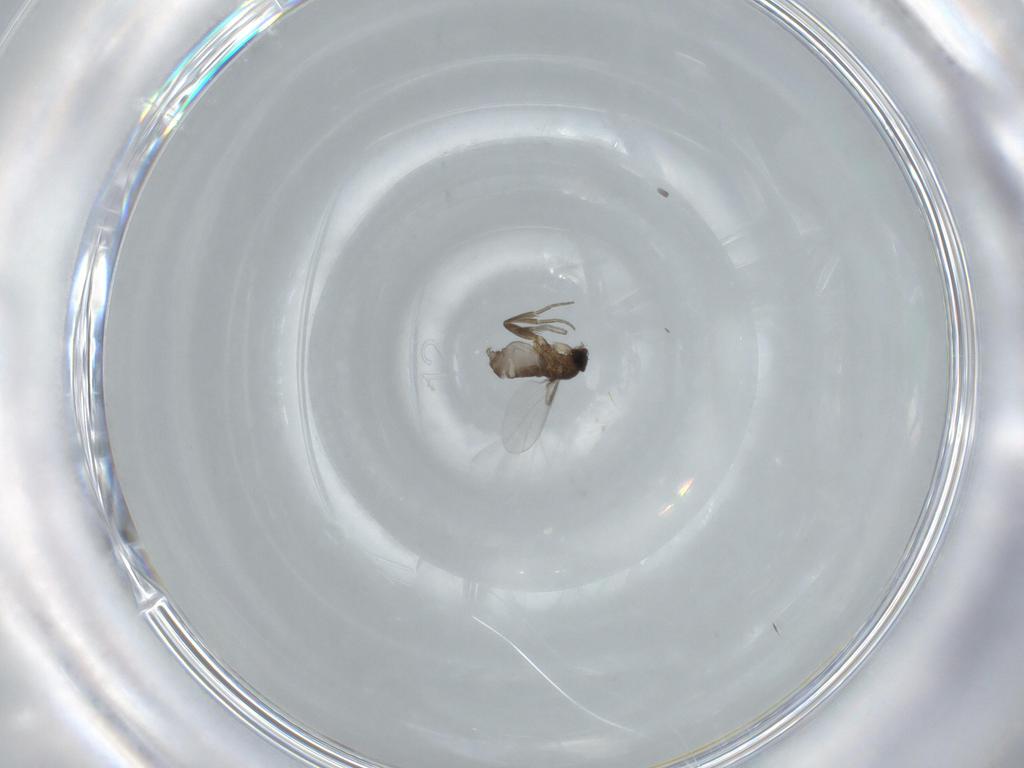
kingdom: Animalia
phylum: Arthropoda
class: Insecta
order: Diptera
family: Phoridae
